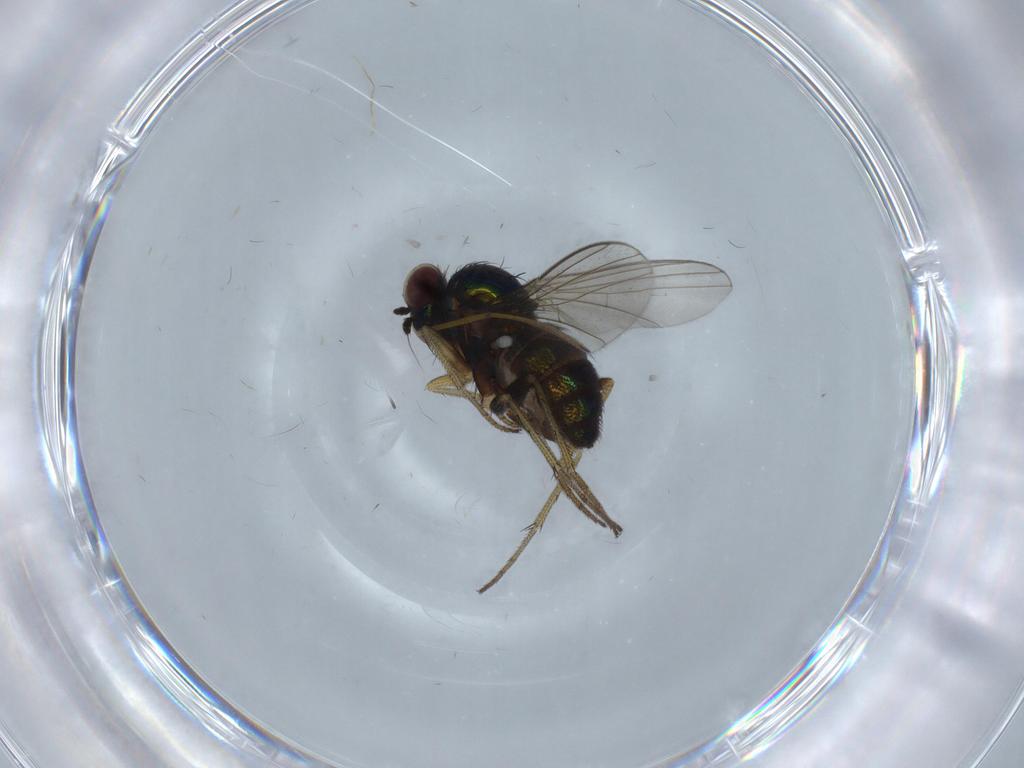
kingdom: Animalia
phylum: Arthropoda
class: Insecta
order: Diptera
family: Dolichopodidae
